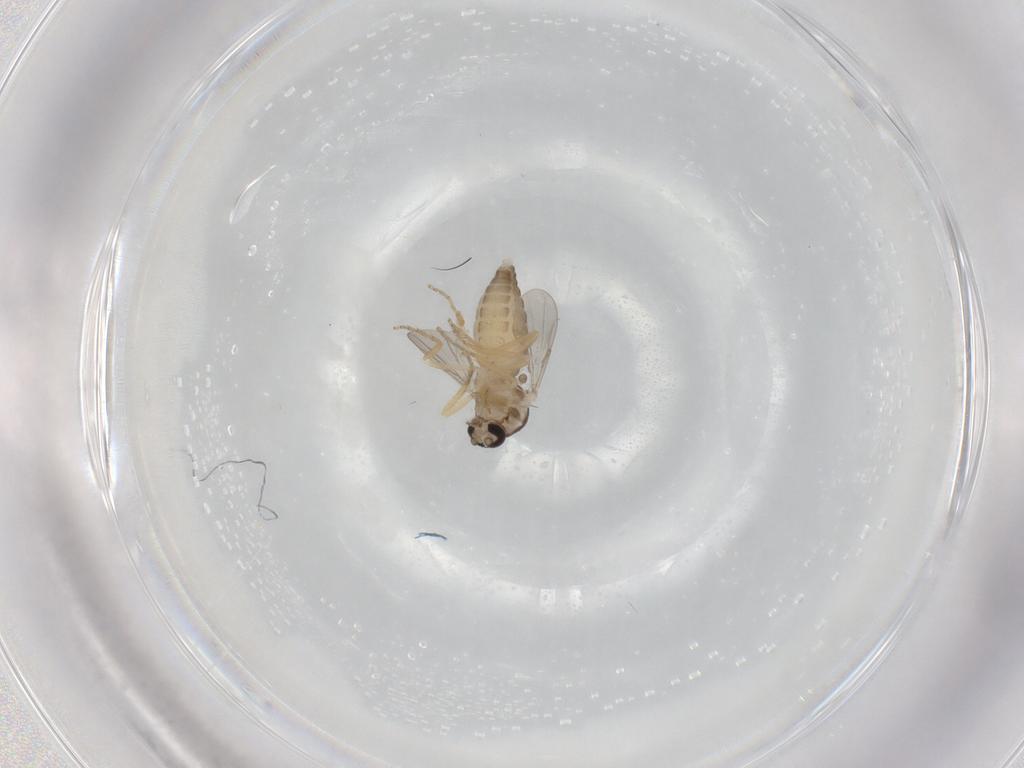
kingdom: Animalia
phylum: Arthropoda
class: Insecta
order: Diptera
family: Ceratopogonidae
